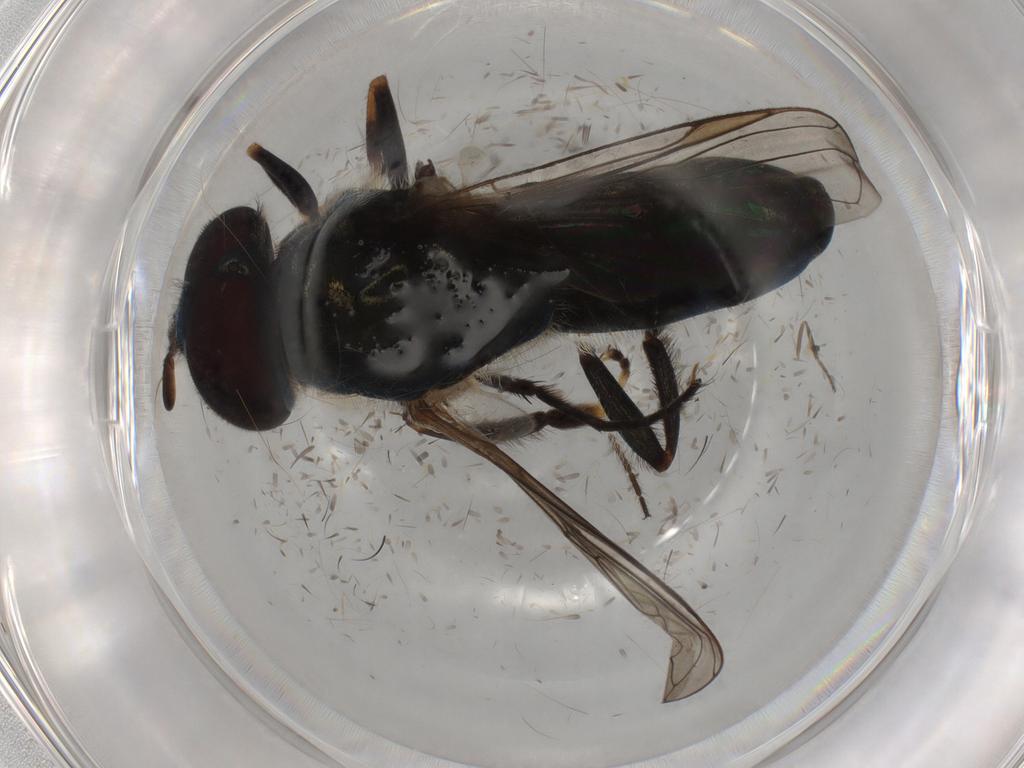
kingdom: Animalia
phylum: Arthropoda
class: Insecta
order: Diptera
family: Syrphidae
